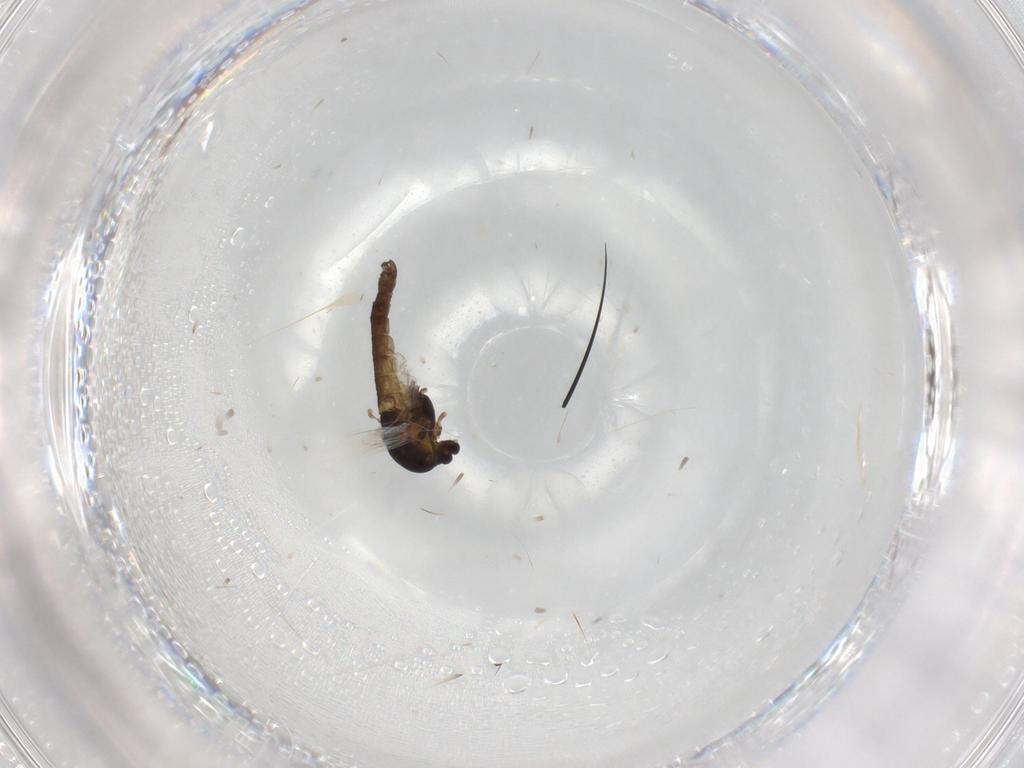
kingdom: Animalia
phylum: Arthropoda
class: Insecta
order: Diptera
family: Chironomidae
